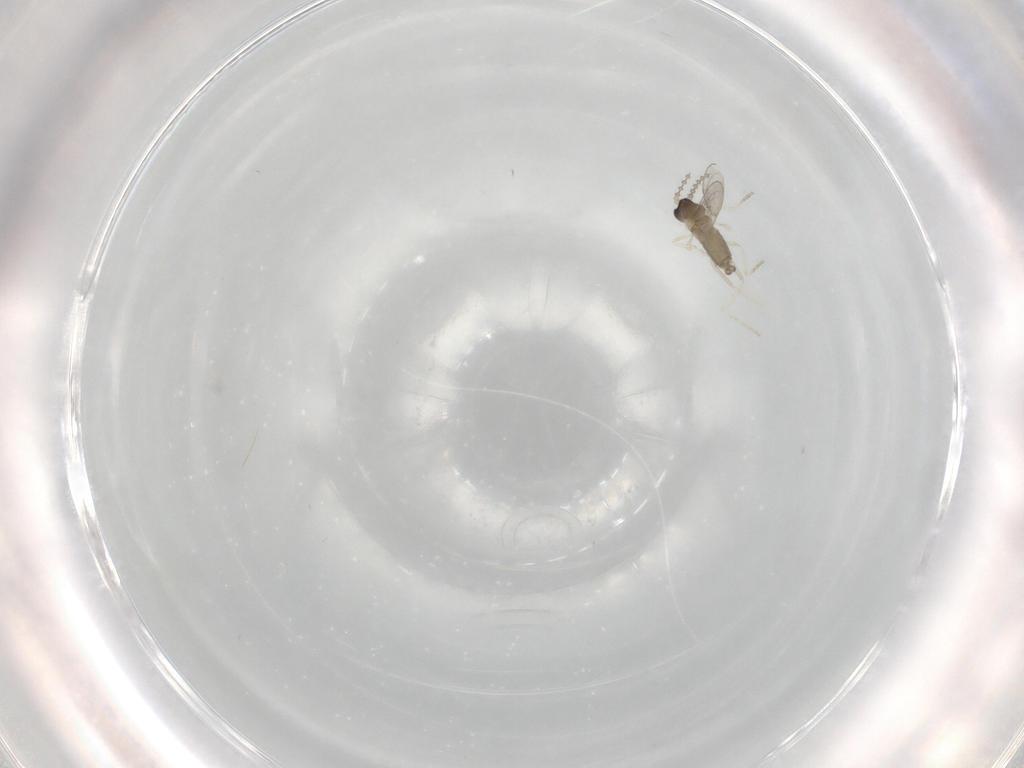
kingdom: Animalia
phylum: Arthropoda
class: Insecta
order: Diptera
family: Cecidomyiidae
